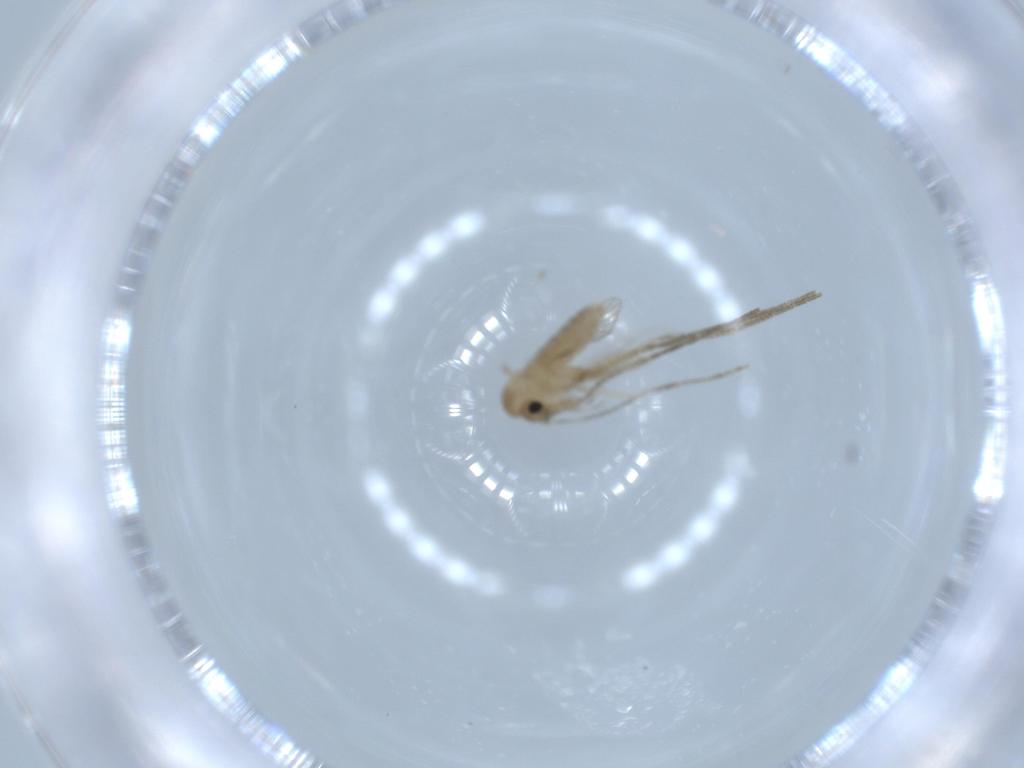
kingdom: Animalia
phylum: Arthropoda
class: Insecta
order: Diptera
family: Psychodidae
